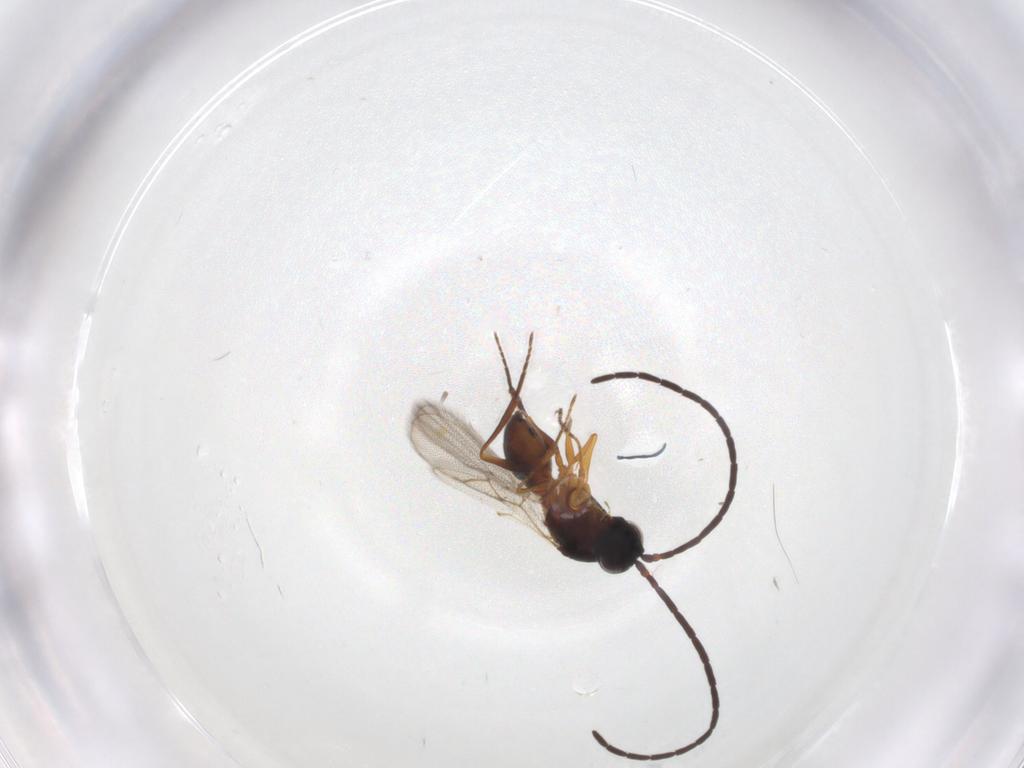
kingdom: Animalia
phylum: Arthropoda
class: Insecta
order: Hymenoptera
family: Figitidae
